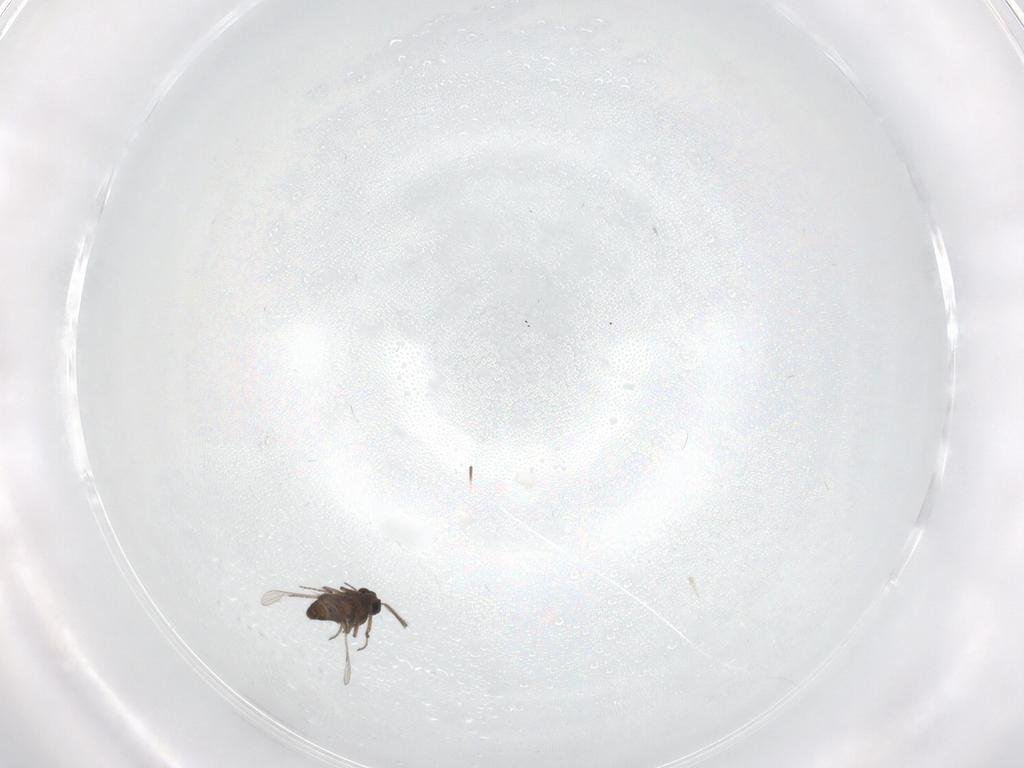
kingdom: Animalia
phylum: Arthropoda
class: Insecta
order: Diptera
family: Ceratopogonidae
